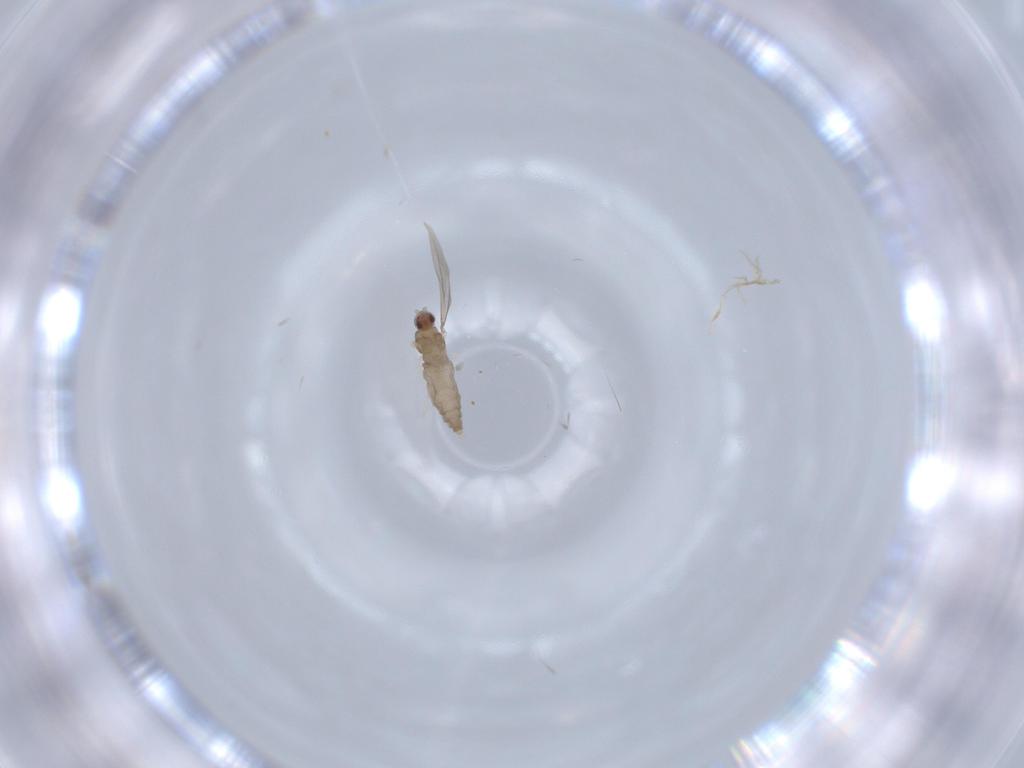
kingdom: Animalia
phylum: Arthropoda
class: Insecta
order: Diptera
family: Cecidomyiidae
